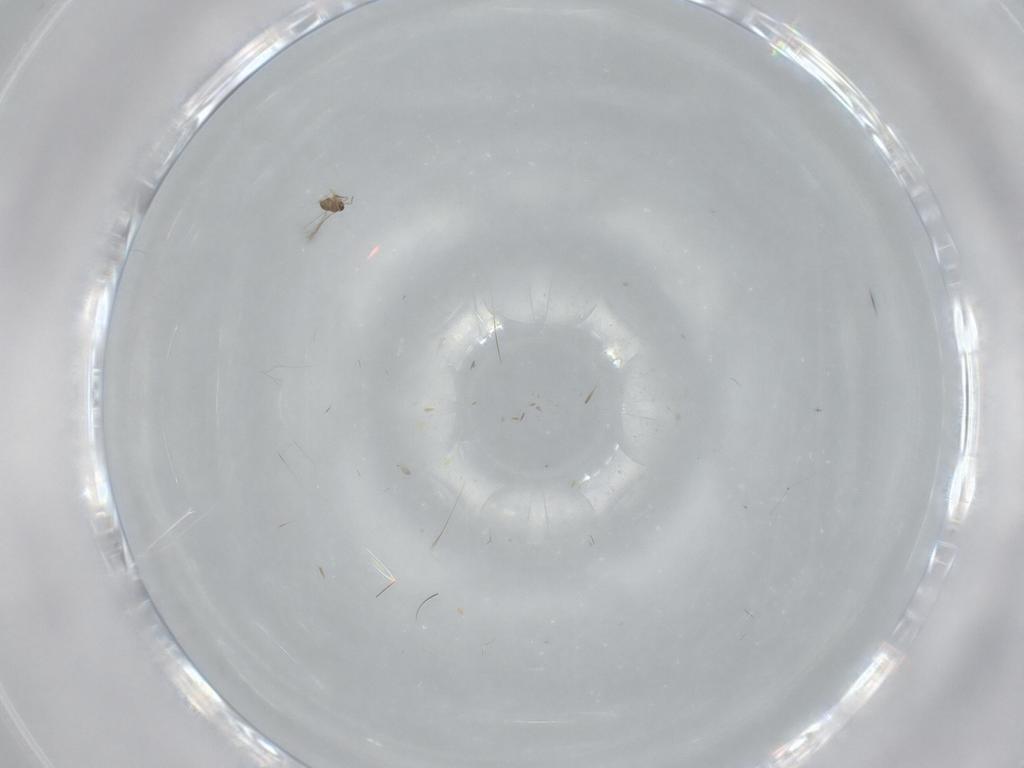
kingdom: Animalia
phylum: Arthropoda
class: Insecta
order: Hymenoptera
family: Mymaridae
